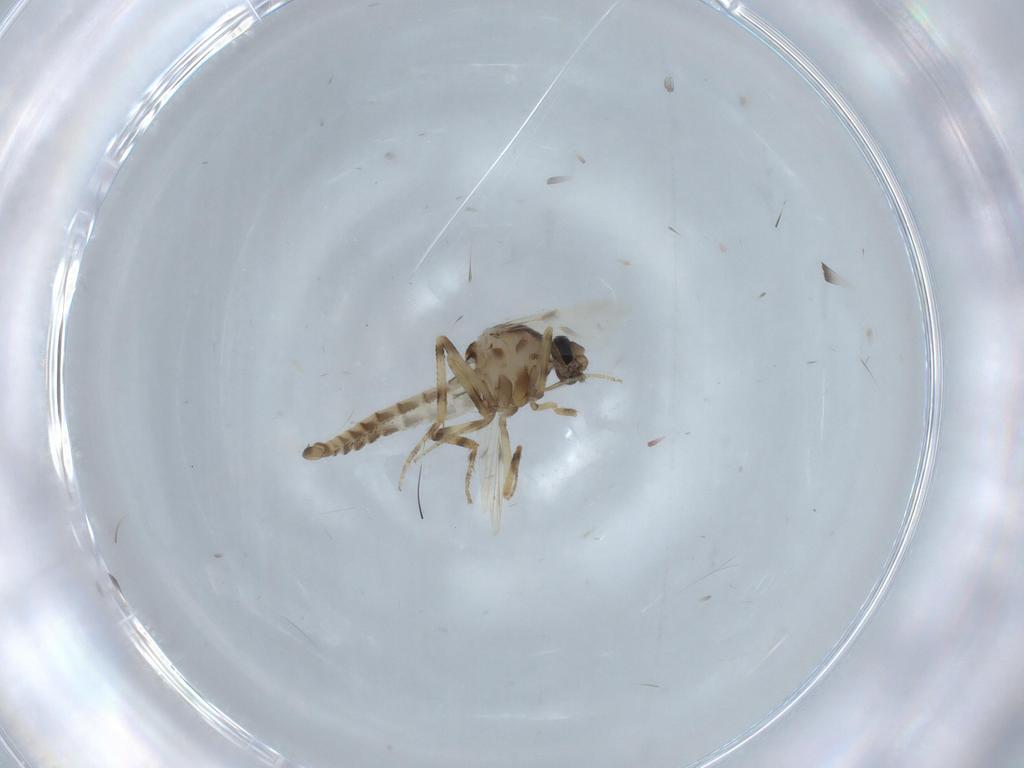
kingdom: Animalia
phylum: Arthropoda
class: Insecta
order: Diptera
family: Ceratopogonidae
